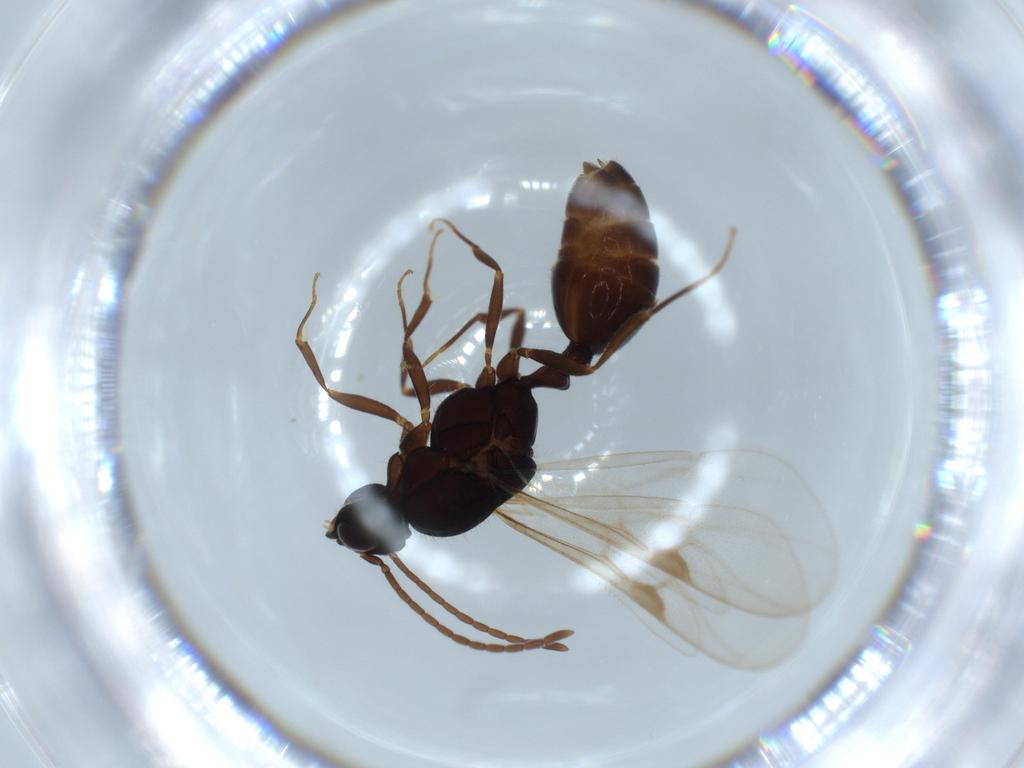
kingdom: Animalia
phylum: Arthropoda
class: Insecta
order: Hymenoptera
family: Formicidae
